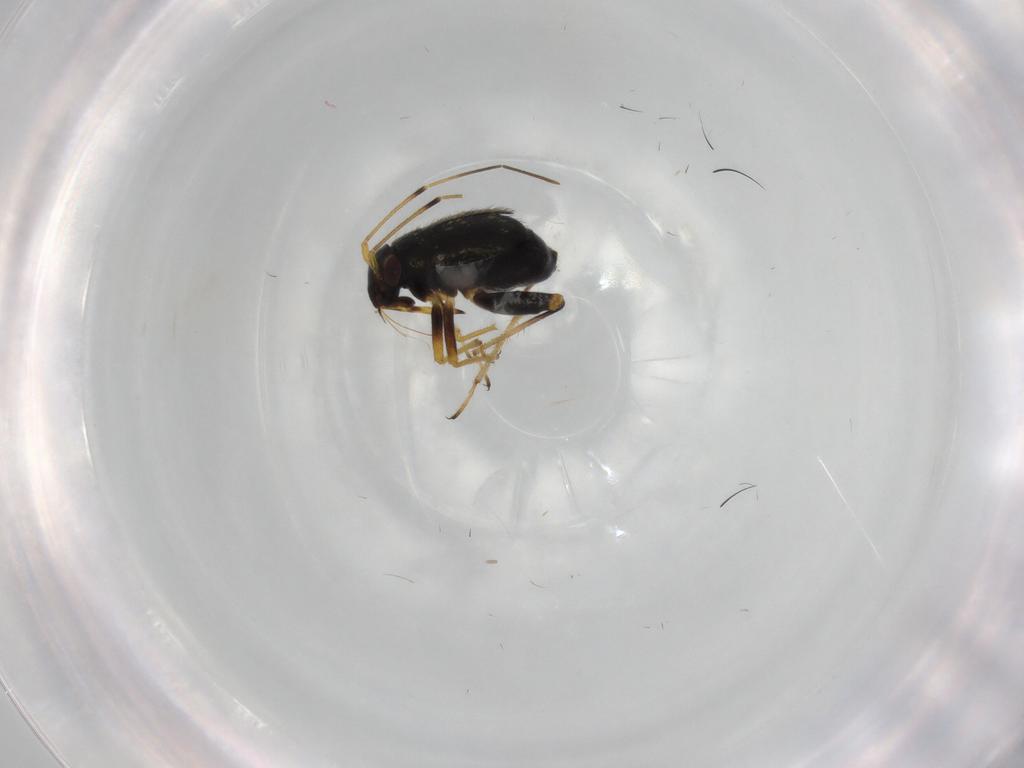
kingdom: Animalia
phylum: Arthropoda
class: Insecta
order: Hemiptera
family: Miridae
